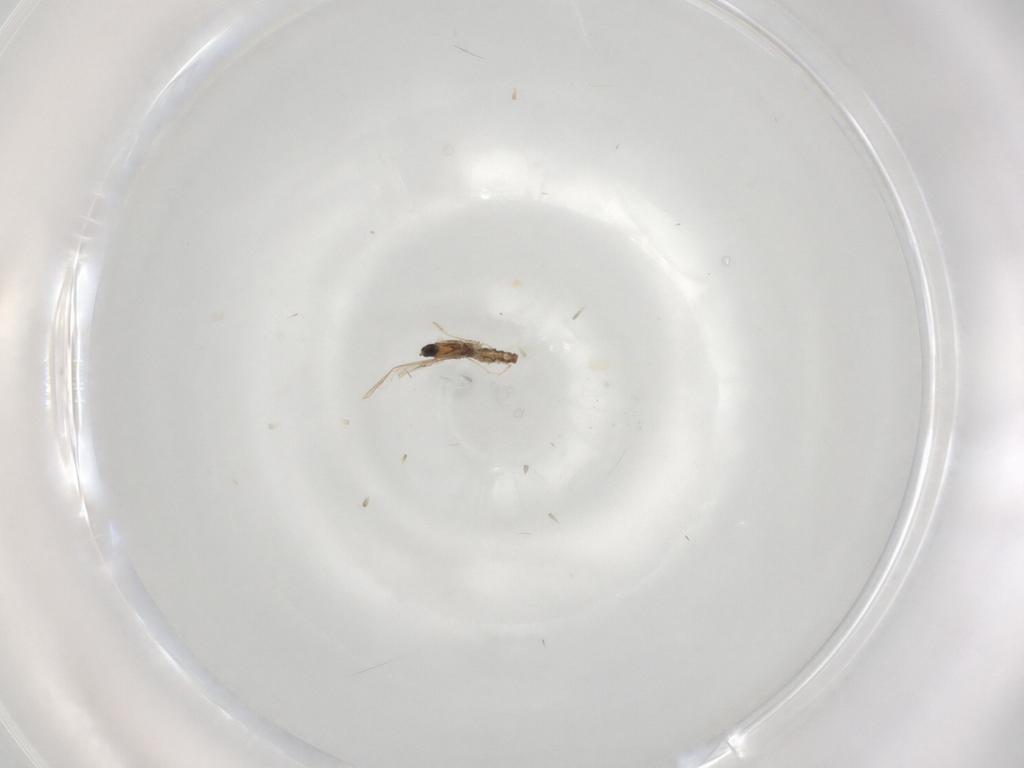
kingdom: Animalia
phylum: Arthropoda
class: Insecta
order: Diptera
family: Cecidomyiidae
